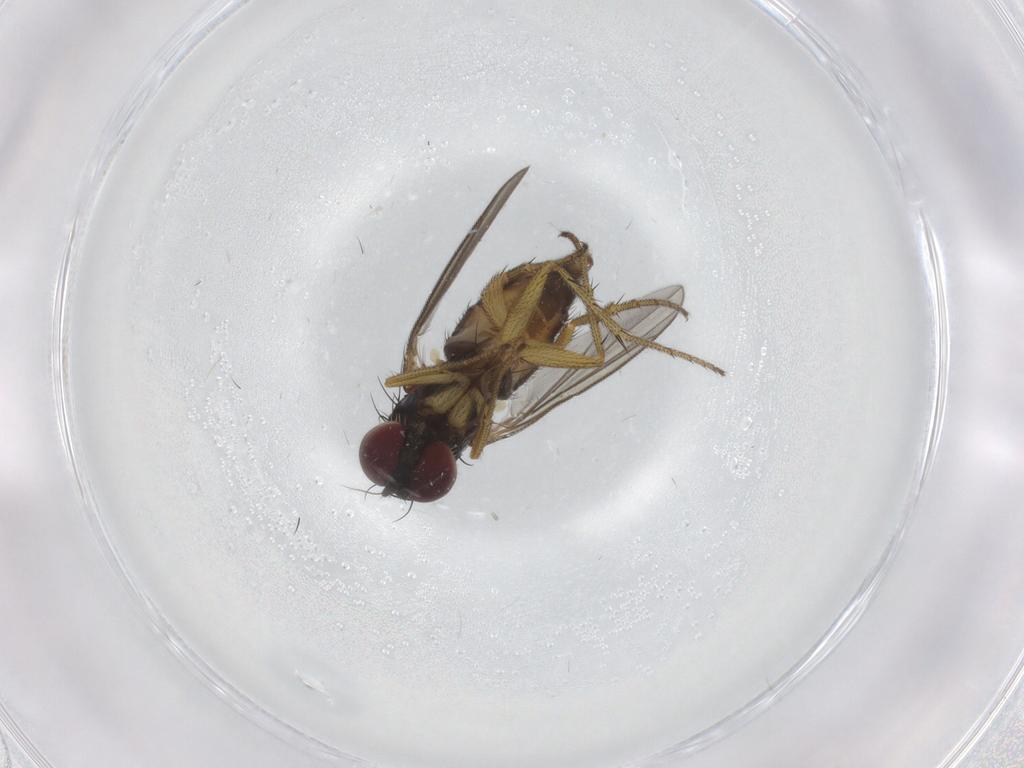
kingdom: Animalia
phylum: Arthropoda
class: Insecta
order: Diptera
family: Dolichopodidae
